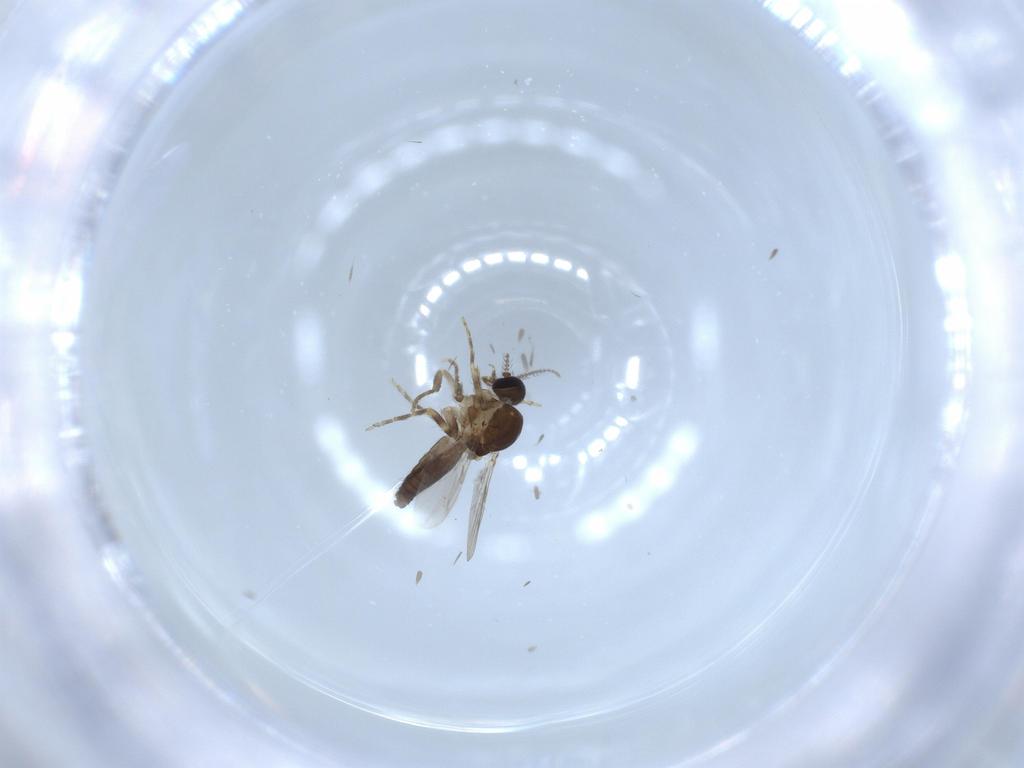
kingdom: Animalia
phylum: Arthropoda
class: Insecta
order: Diptera
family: Ceratopogonidae
